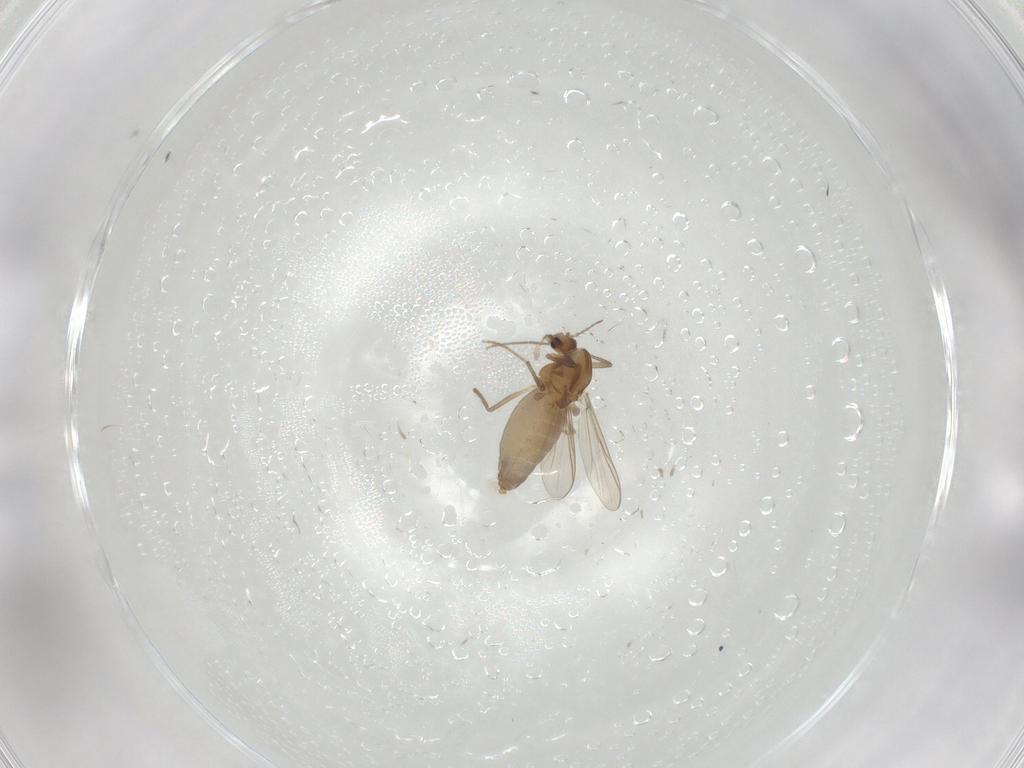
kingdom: Animalia
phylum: Arthropoda
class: Insecta
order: Diptera
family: Chironomidae
